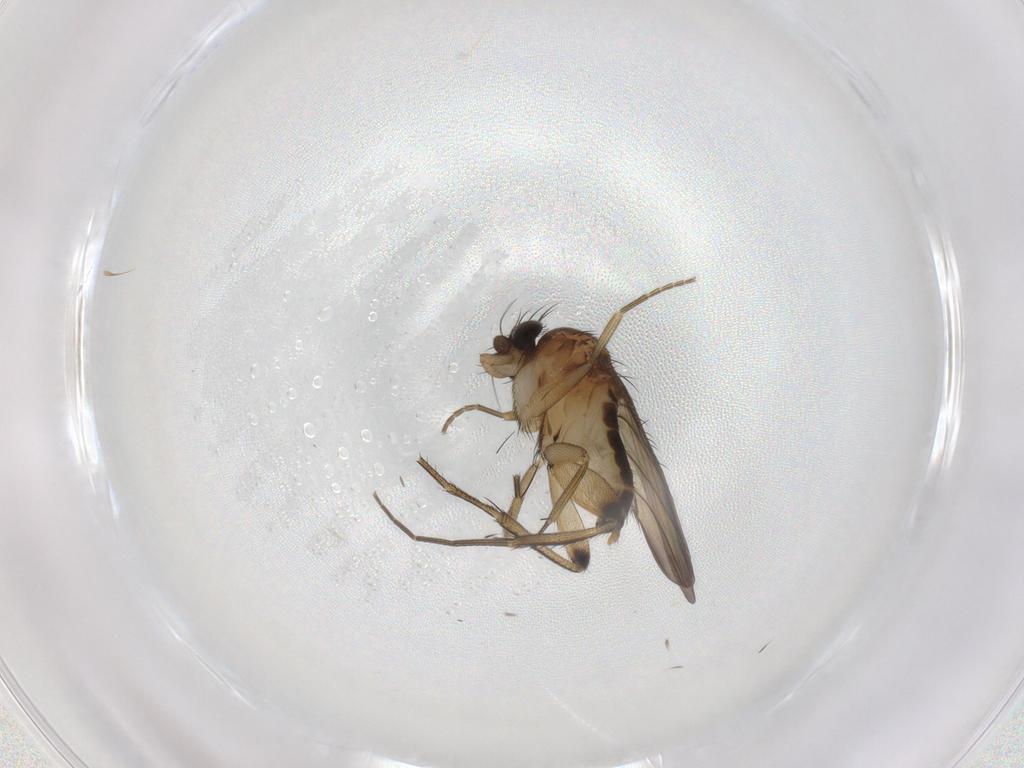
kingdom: Animalia
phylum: Arthropoda
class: Insecta
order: Diptera
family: Phoridae
